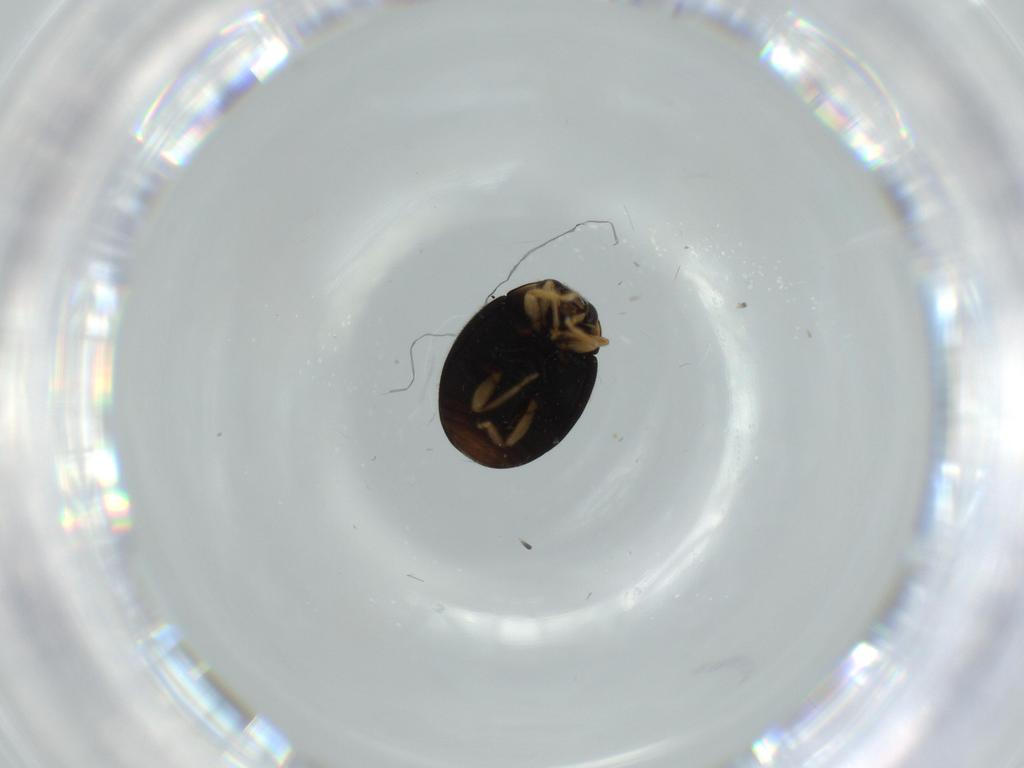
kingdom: Animalia
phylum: Arthropoda
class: Insecta
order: Coleoptera
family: Coccinellidae
